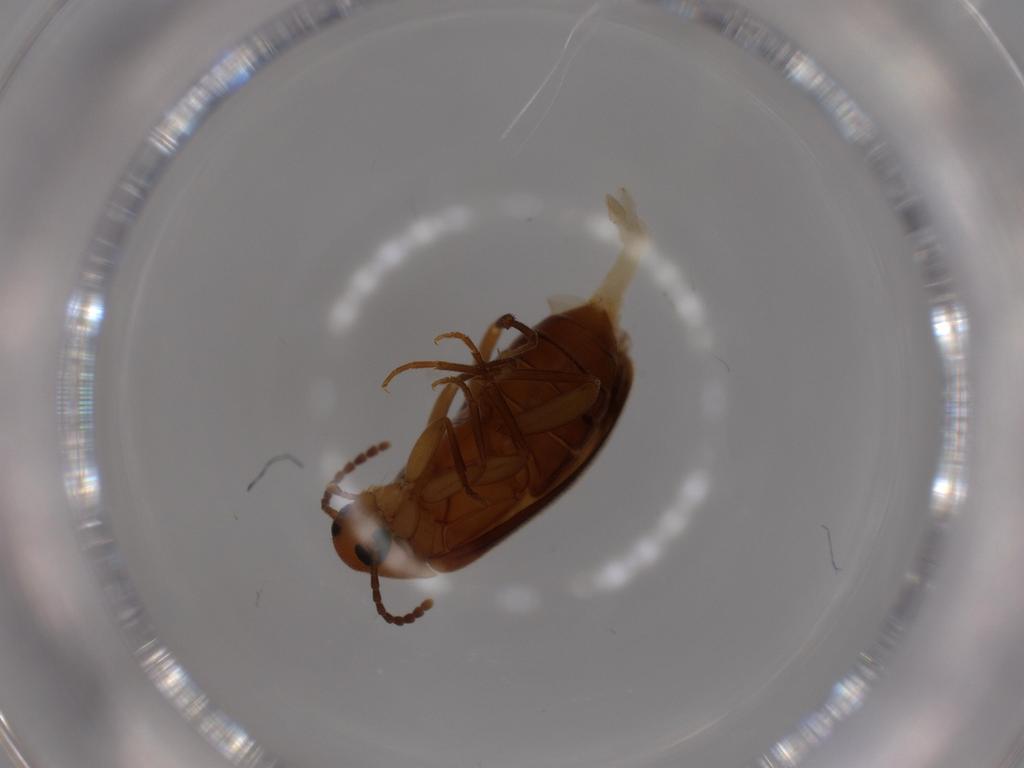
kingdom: Animalia
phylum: Arthropoda
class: Insecta
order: Coleoptera
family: Scraptiidae
